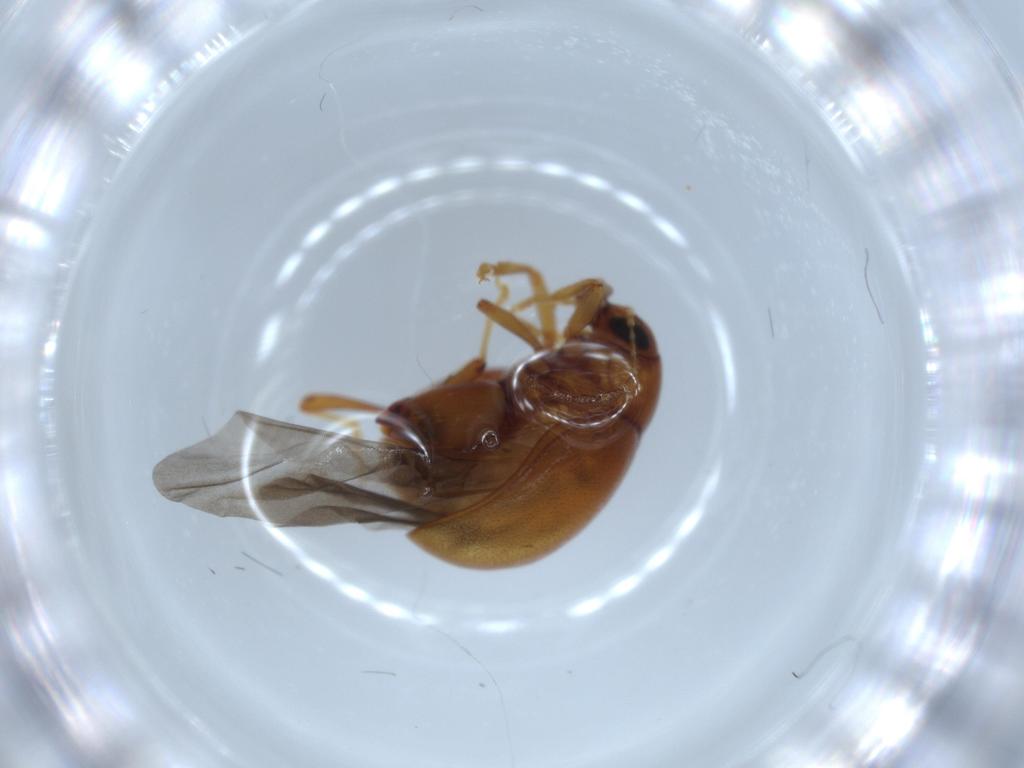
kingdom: Animalia
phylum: Arthropoda
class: Insecta
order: Coleoptera
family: Chrysomelidae
